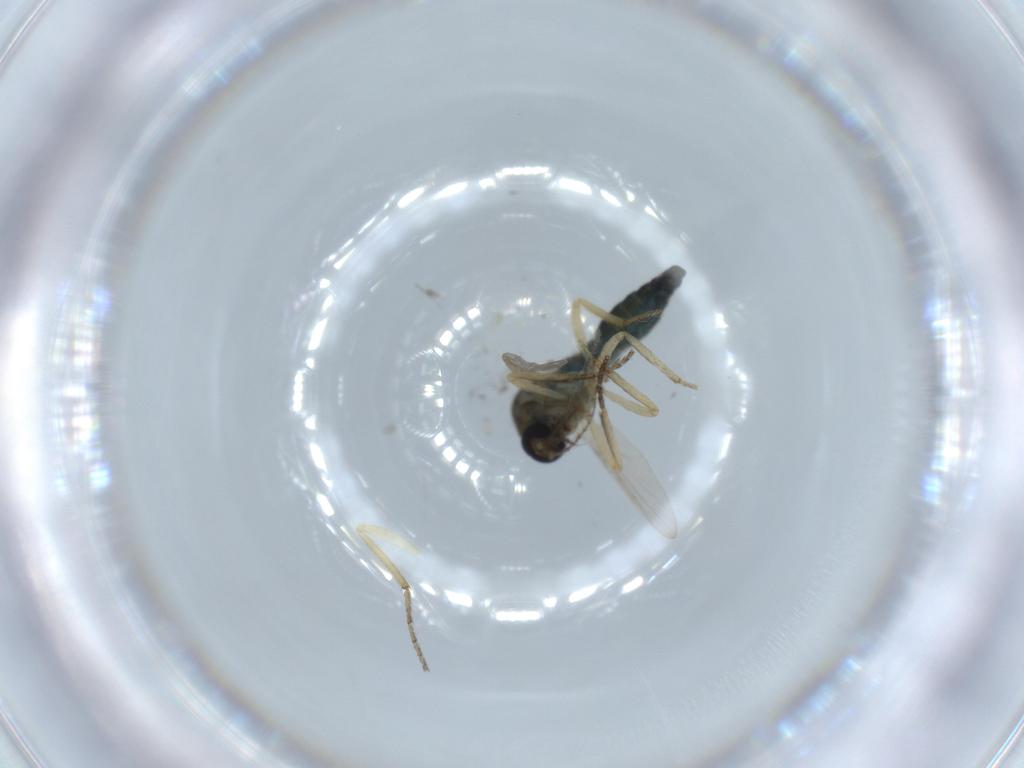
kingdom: Animalia
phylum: Arthropoda
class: Insecta
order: Diptera
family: Ceratopogonidae
